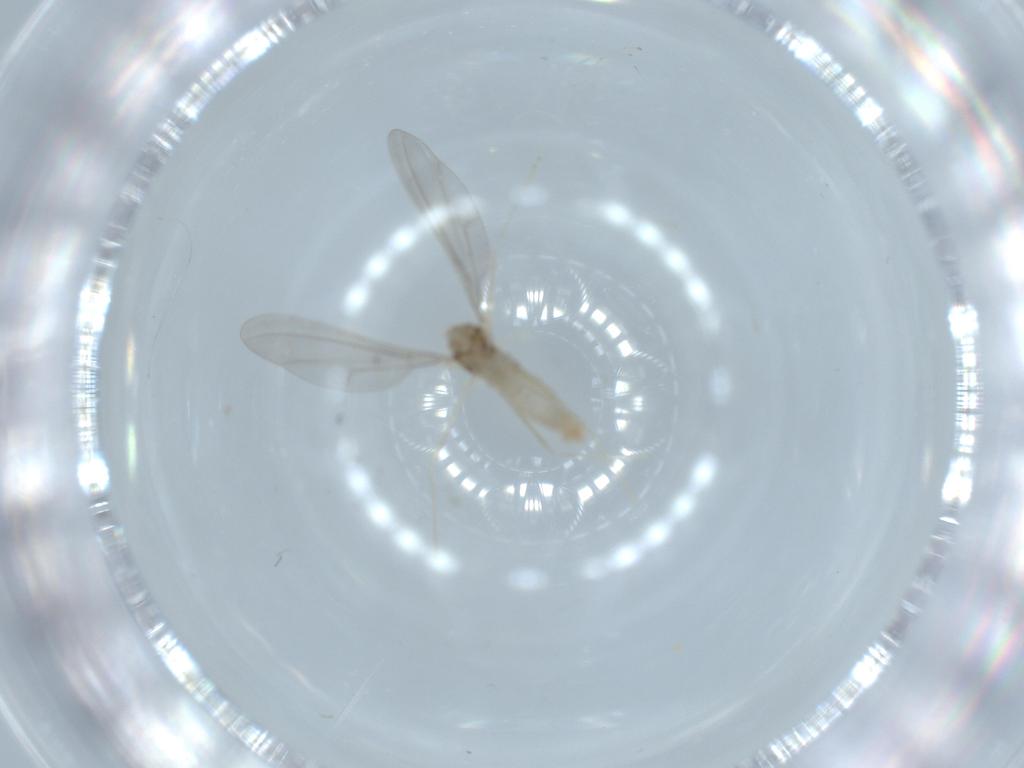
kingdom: Animalia
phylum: Arthropoda
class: Insecta
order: Diptera
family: Cecidomyiidae
